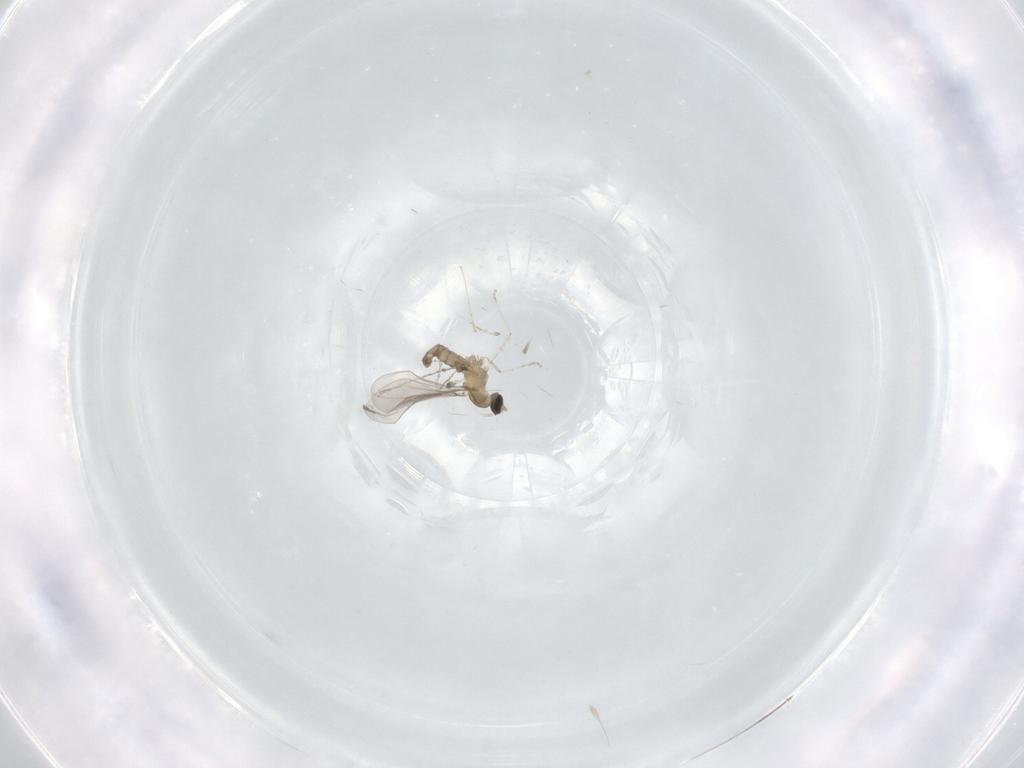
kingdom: Animalia
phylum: Arthropoda
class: Insecta
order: Diptera
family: Cecidomyiidae
